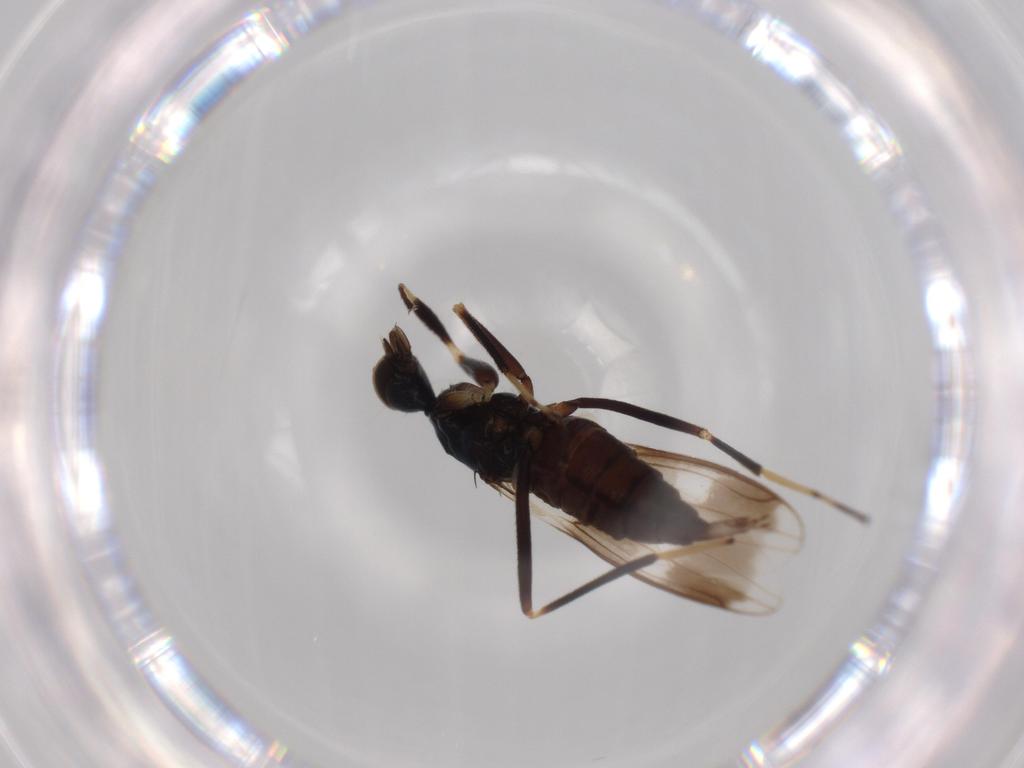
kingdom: Animalia
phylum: Arthropoda
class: Insecta
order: Diptera
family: Hybotidae
